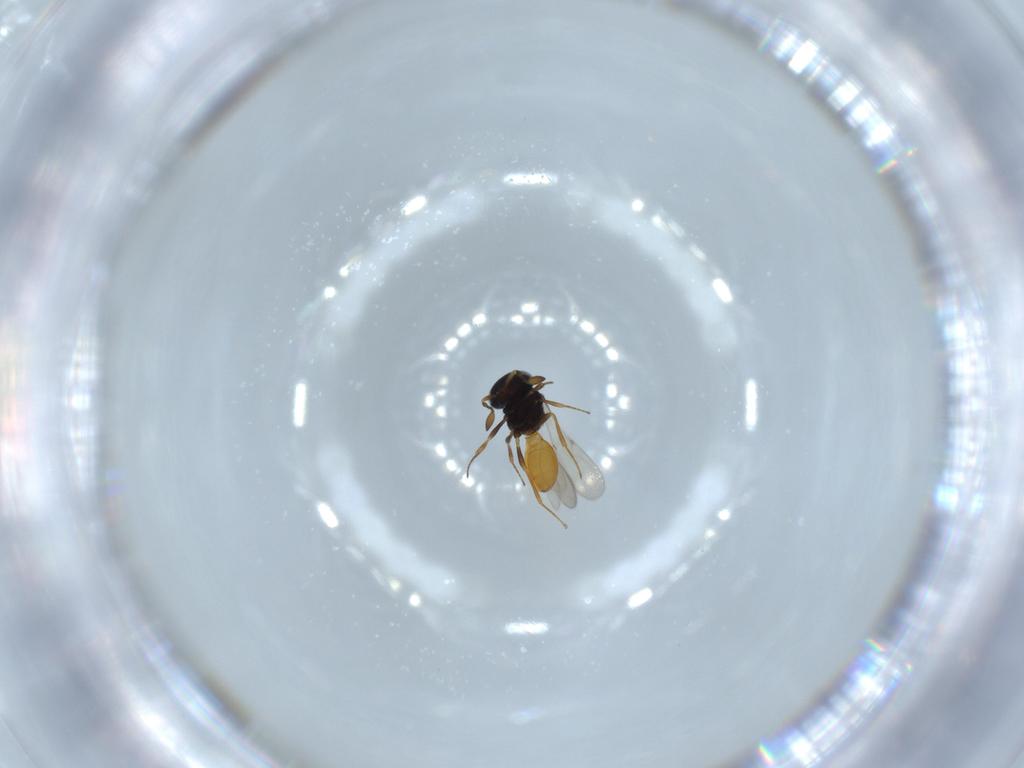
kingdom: Animalia
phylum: Arthropoda
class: Insecta
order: Hymenoptera
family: Scelionidae
